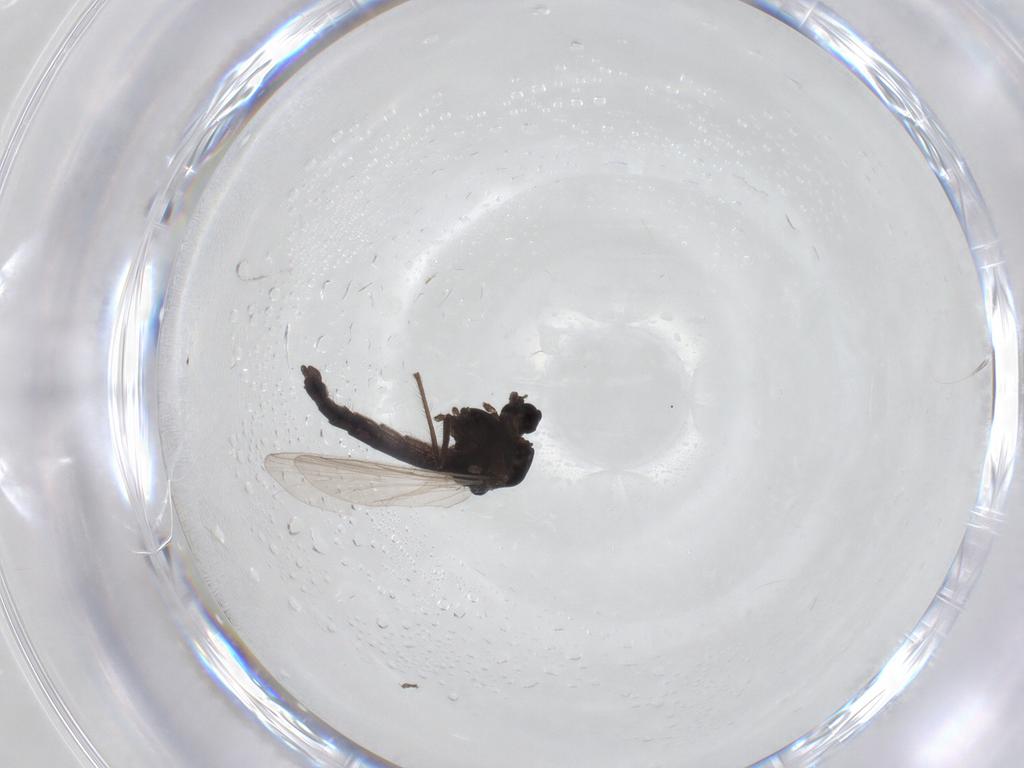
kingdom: Animalia
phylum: Arthropoda
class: Insecta
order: Diptera
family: Chironomidae
